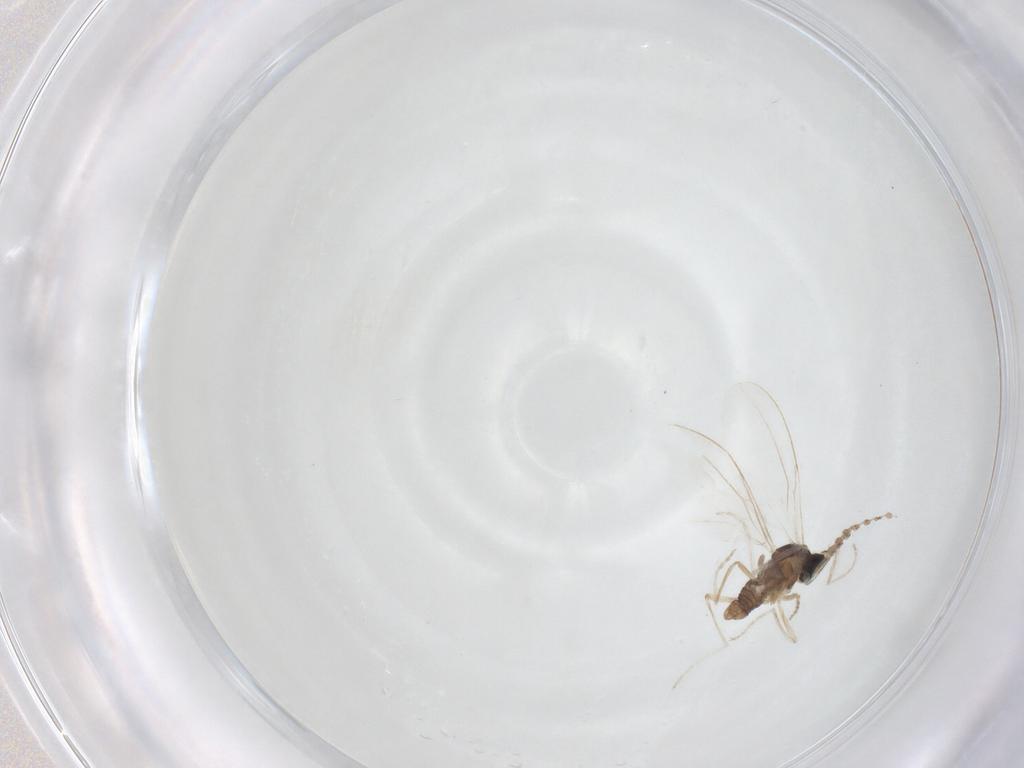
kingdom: Animalia
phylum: Arthropoda
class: Insecta
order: Diptera
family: Cecidomyiidae
